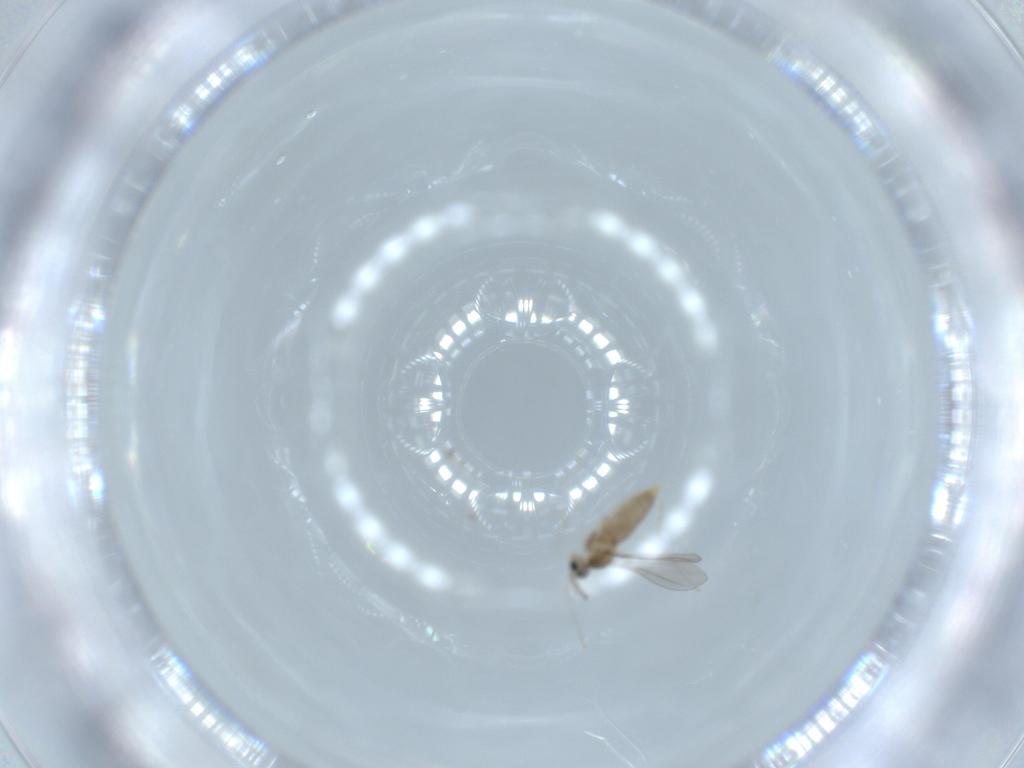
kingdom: Animalia
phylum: Arthropoda
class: Insecta
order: Diptera
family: Cecidomyiidae
